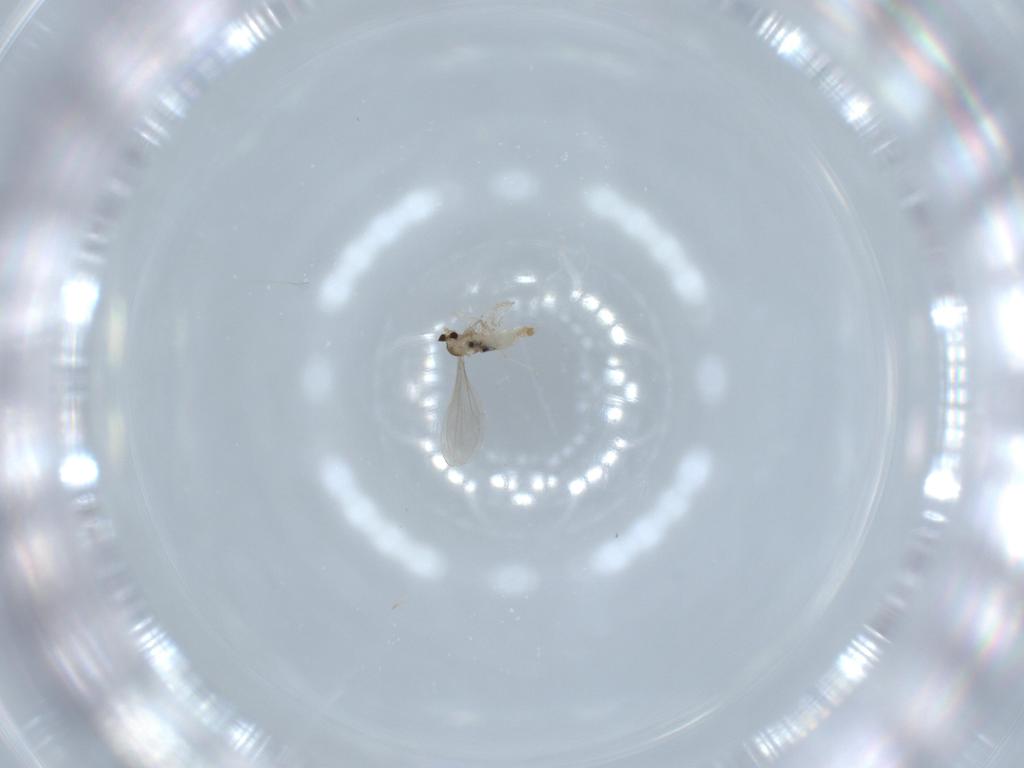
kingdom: Animalia
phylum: Arthropoda
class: Insecta
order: Diptera
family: Cecidomyiidae
